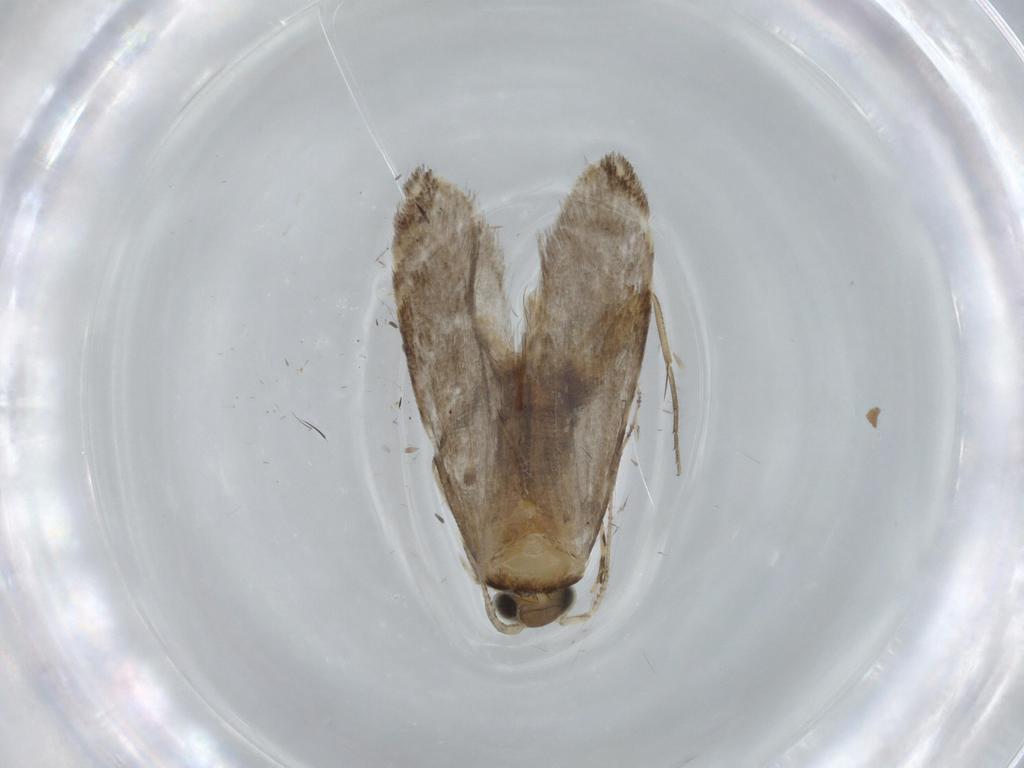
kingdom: Animalia
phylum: Arthropoda
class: Insecta
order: Lepidoptera
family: Tineidae
